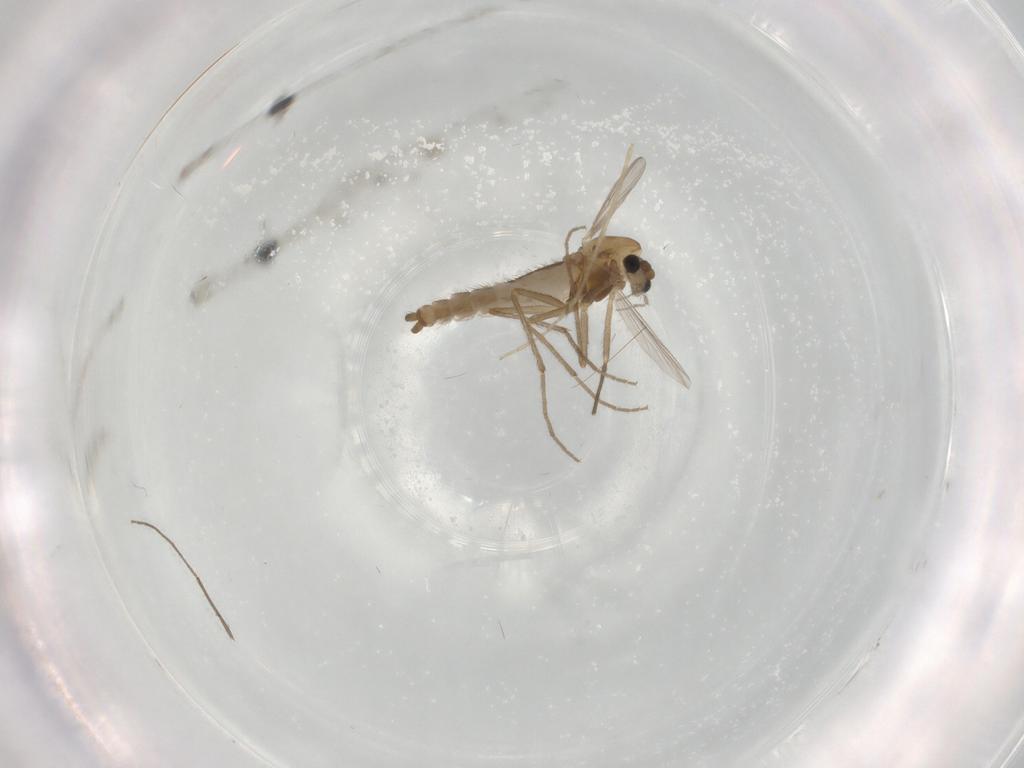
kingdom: Animalia
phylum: Arthropoda
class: Insecta
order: Diptera
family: Chironomidae
